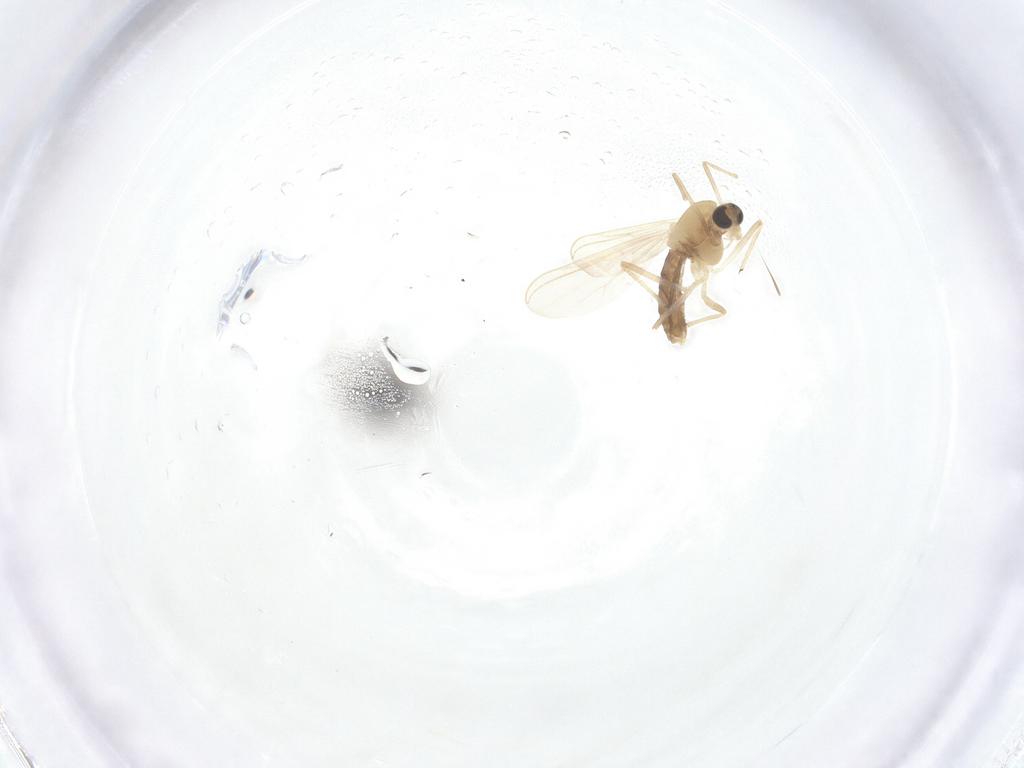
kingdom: Animalia
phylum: Arthropoda
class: Insecta
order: Diptera
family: Chironomidae
